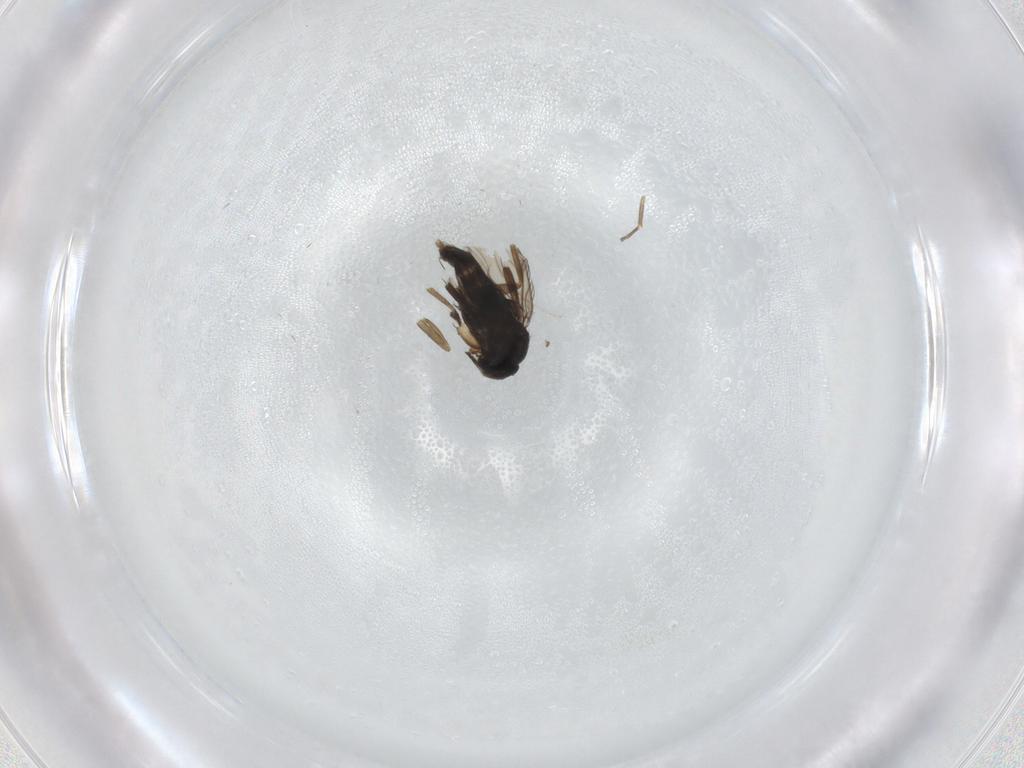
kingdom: Animalia
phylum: Arthropoda
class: Insecta
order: Diptera
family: Phoridae
